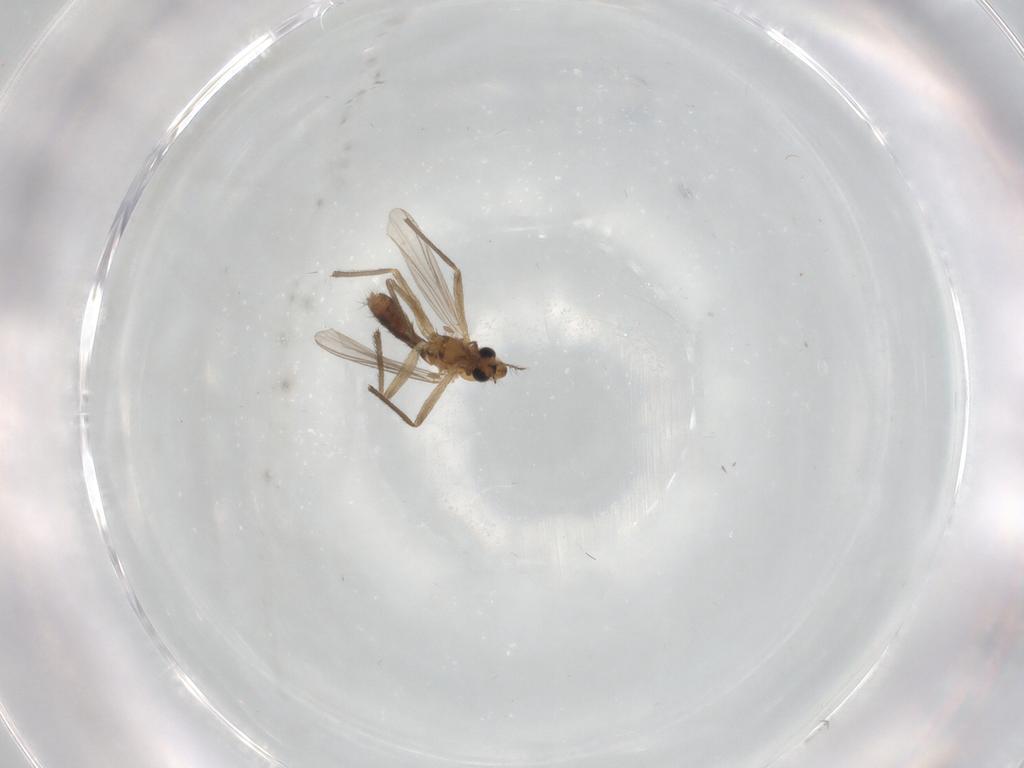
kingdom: Animalia
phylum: Arthropoda
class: Insecta
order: Diptera
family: Chironomidae
